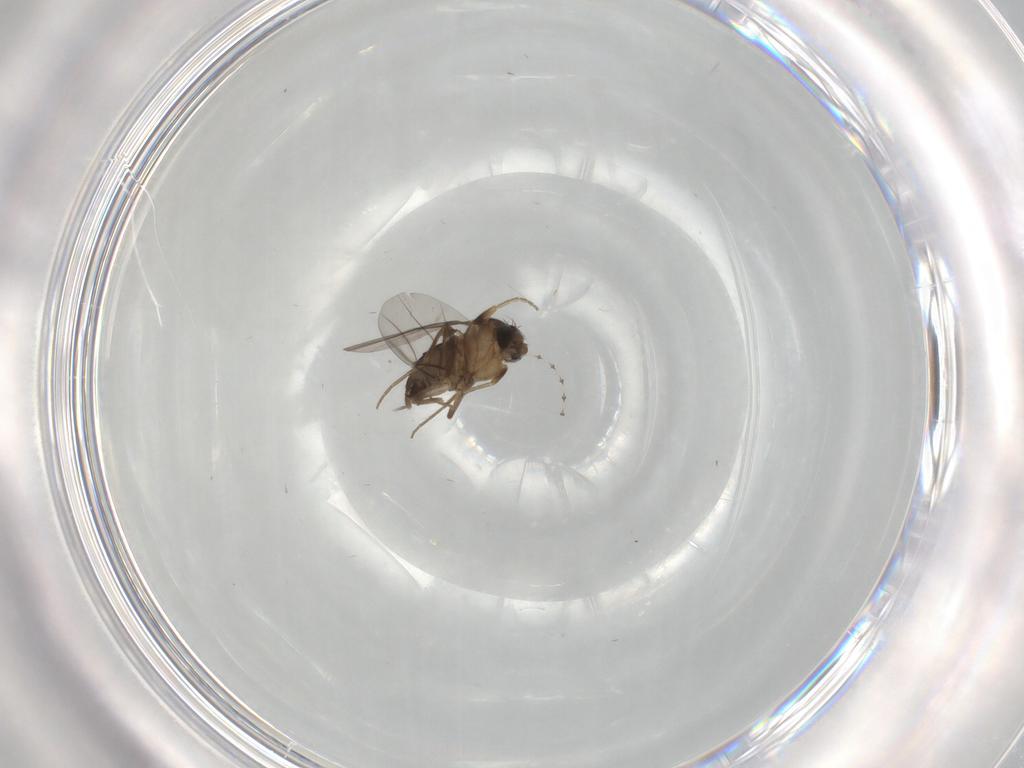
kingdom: Animalia
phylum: Arthropoda
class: Insecta
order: Diptera
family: Phoridae
